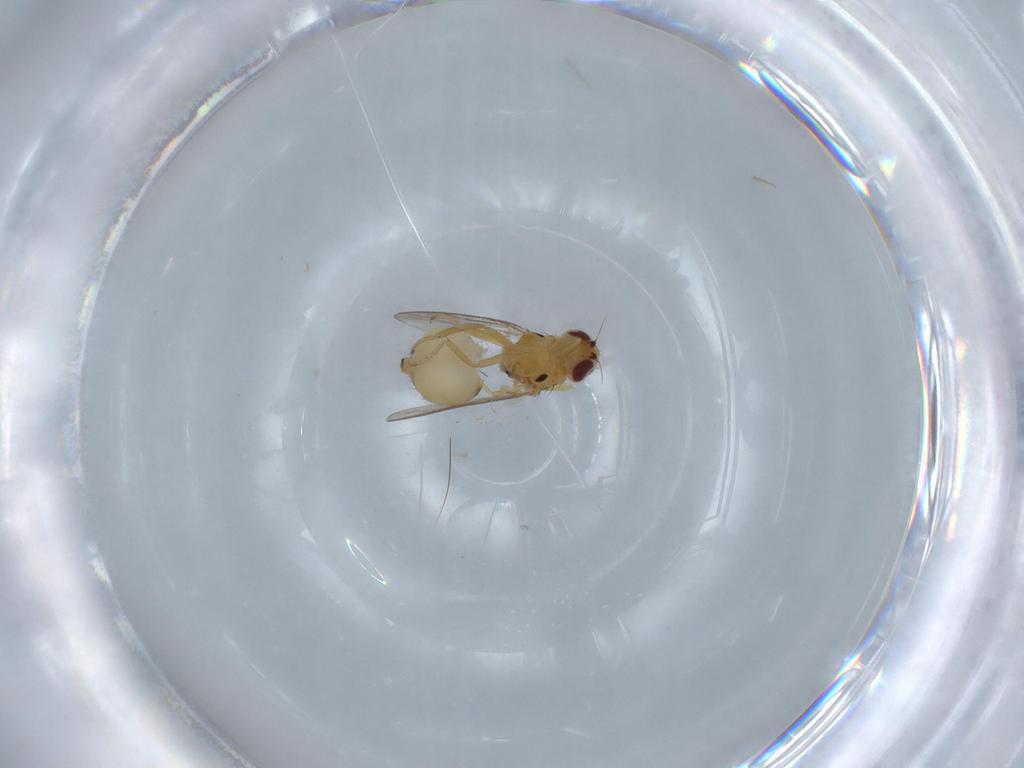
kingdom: Animalia
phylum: Arthropoda
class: Insecta
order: Diptera
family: Chloropidae
